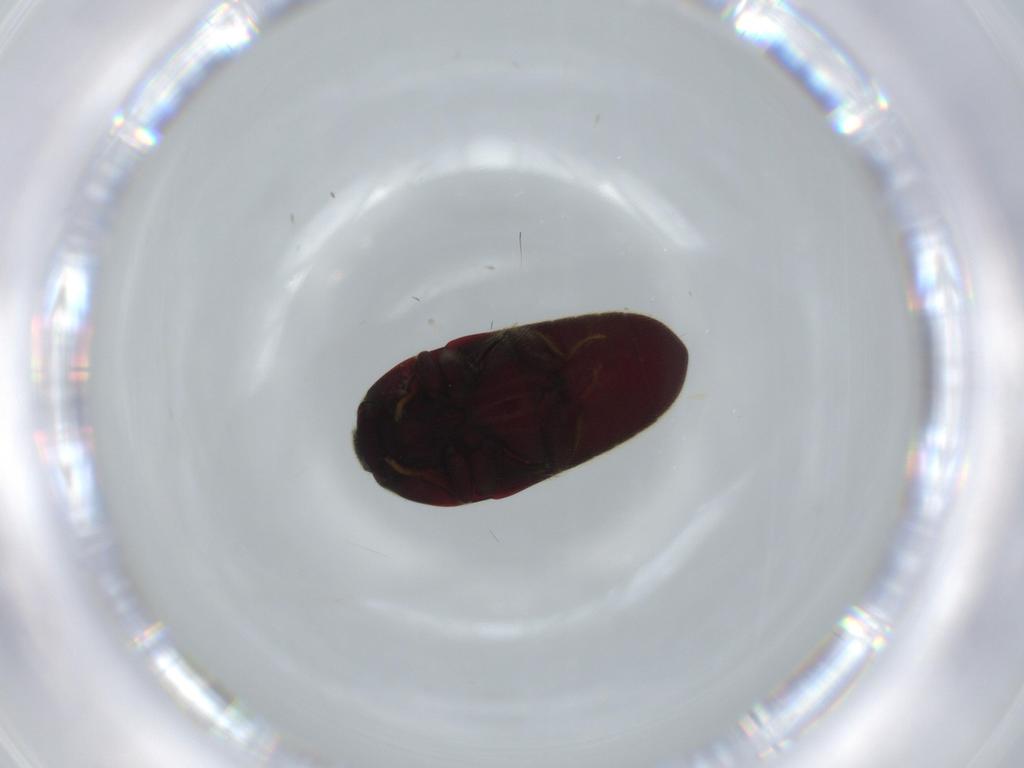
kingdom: Animalia
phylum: Arthropoda
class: Insecta
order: Coleoptera
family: Throscidae
